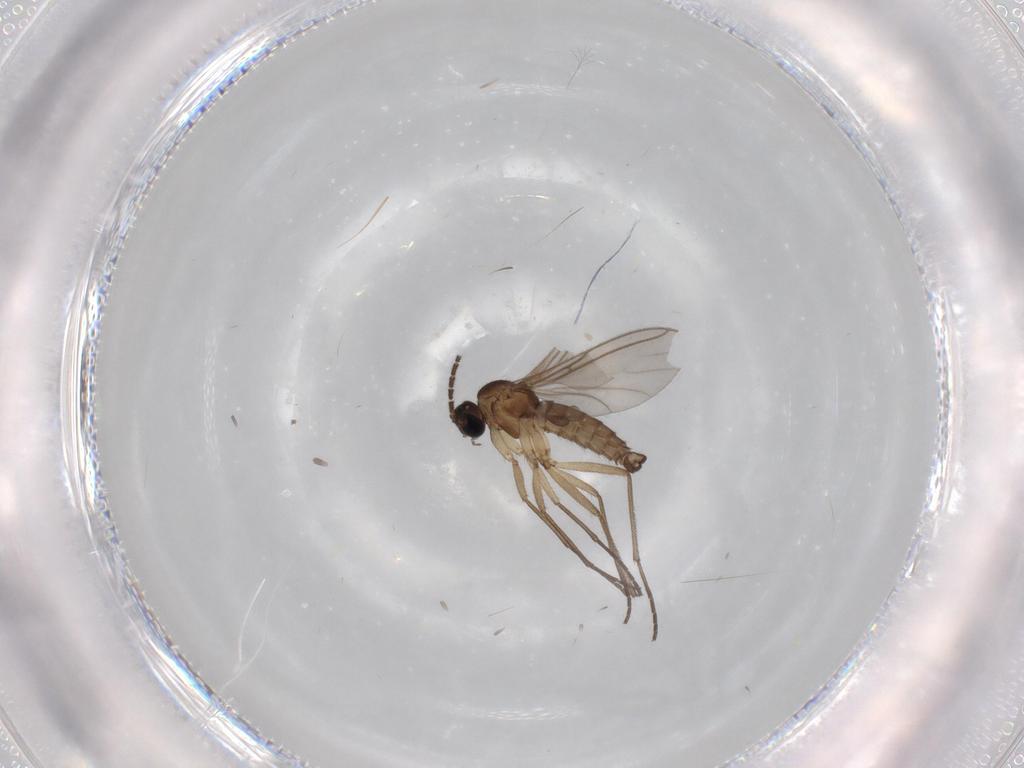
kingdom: Animalia
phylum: Arthropoda
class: Insecta
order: Diptera
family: Sciaridae
